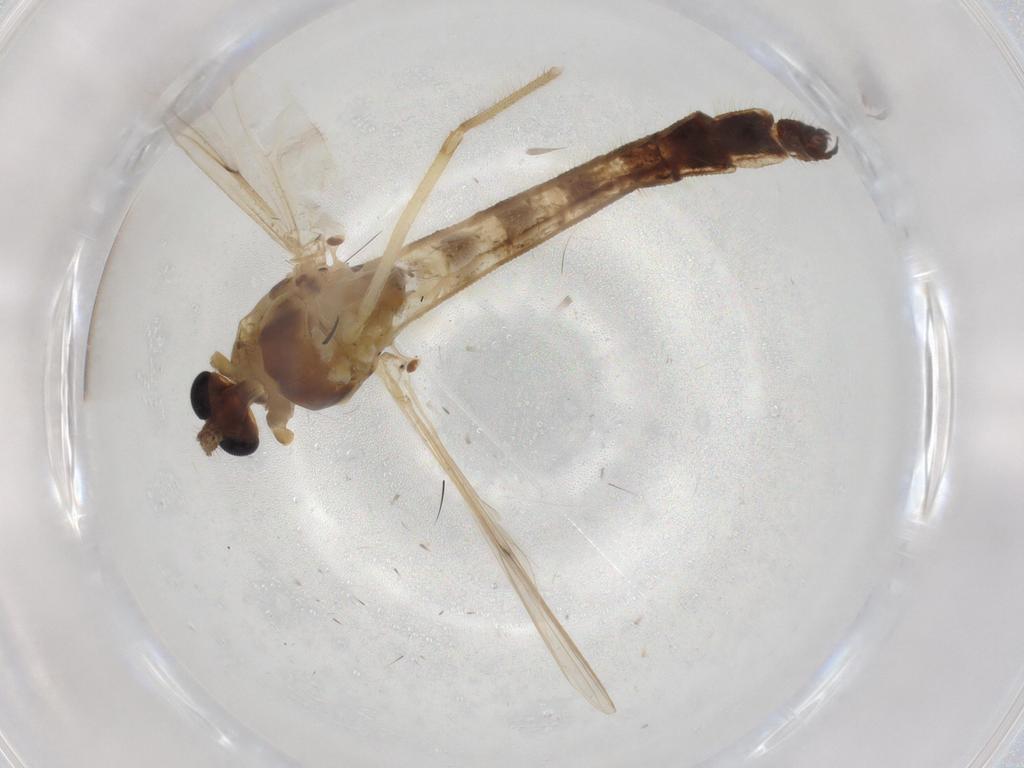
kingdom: Animalia
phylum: Arthropoda
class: Insecta
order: Diptera
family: Chironomidae
